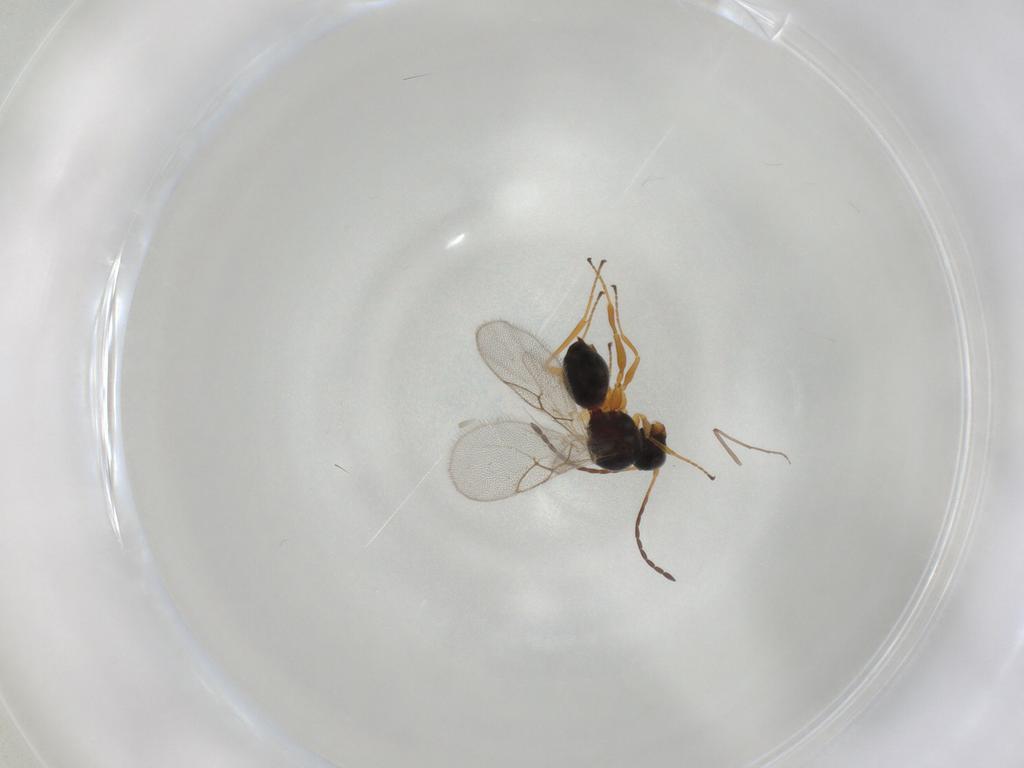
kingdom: Animalia
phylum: Arthropoda
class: Insecta
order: Hymenoptera
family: Figitidae
